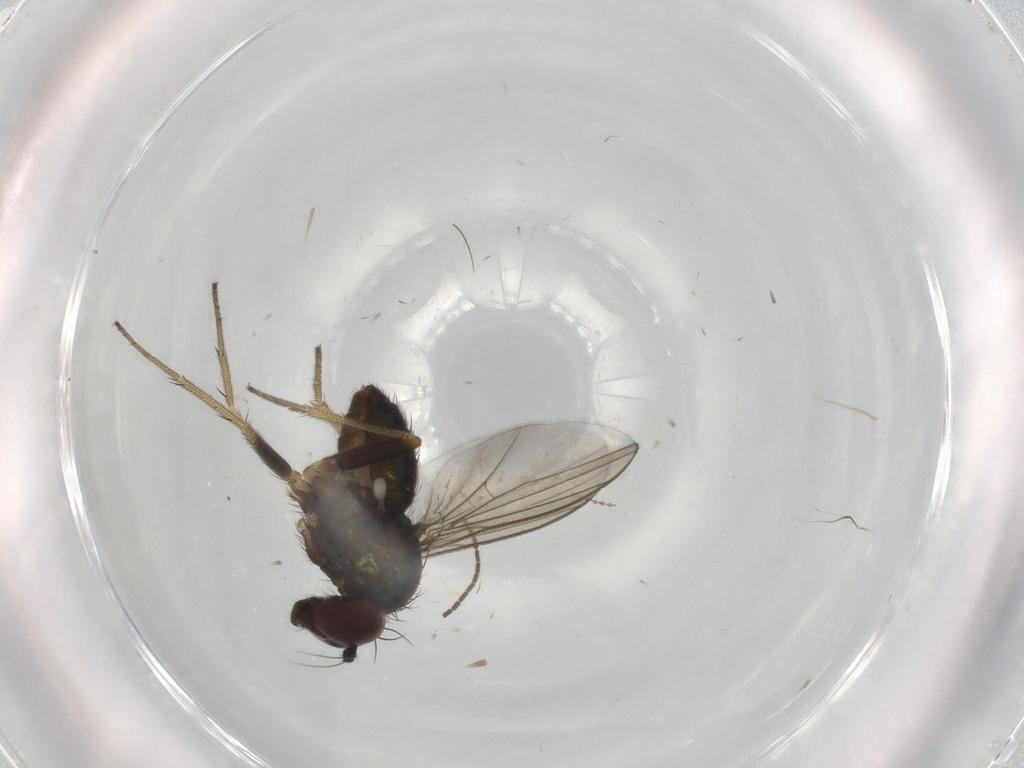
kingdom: Animalia
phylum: Arthropoda
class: Insecta
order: Diptera
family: Sciaridae
